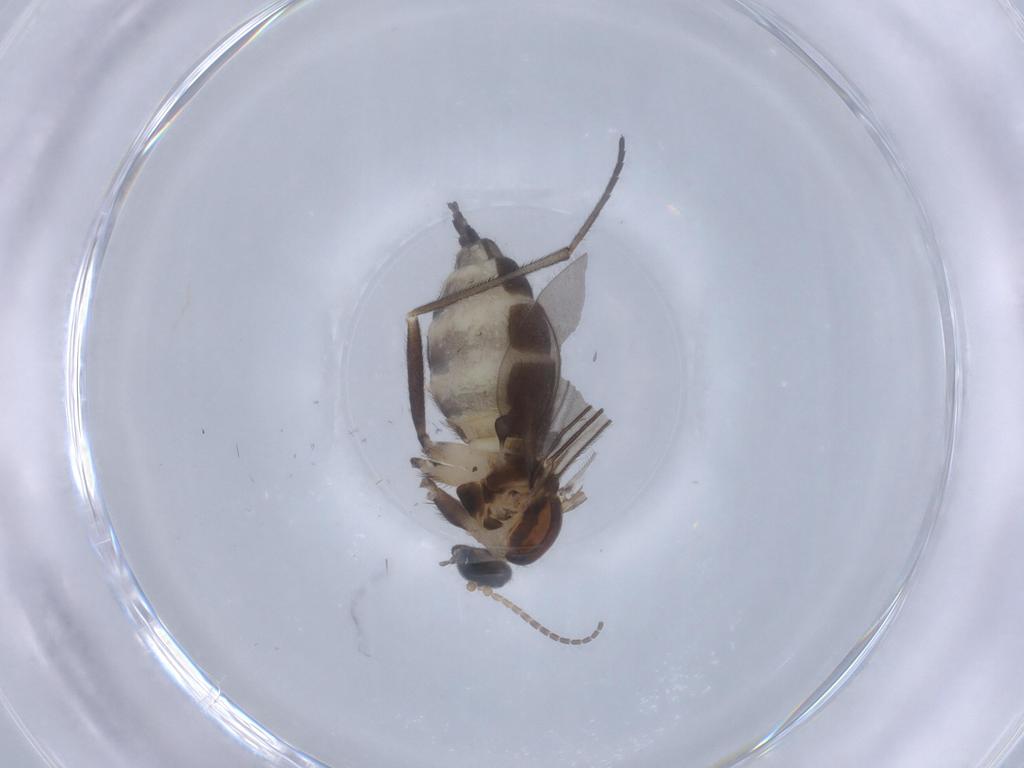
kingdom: Animalia
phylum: Arthropoda
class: Insecta
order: Diptera
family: Sciaridae
